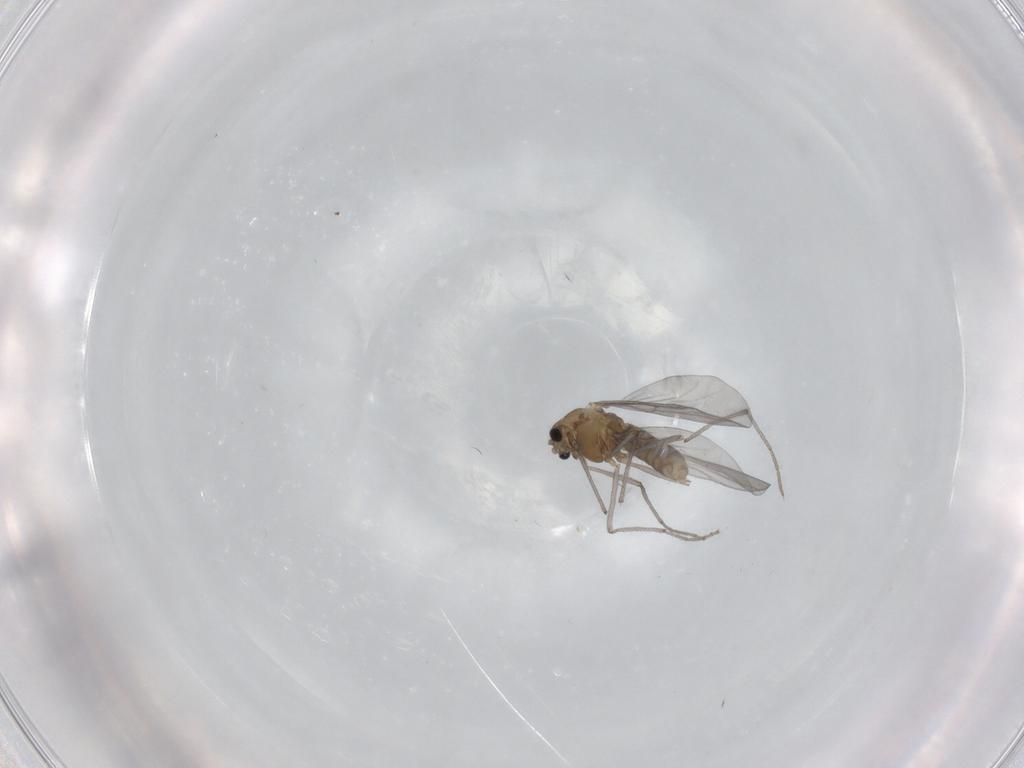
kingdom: Animalia
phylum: Arthropoda
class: Insecta
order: Diptera
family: Chironomidae
